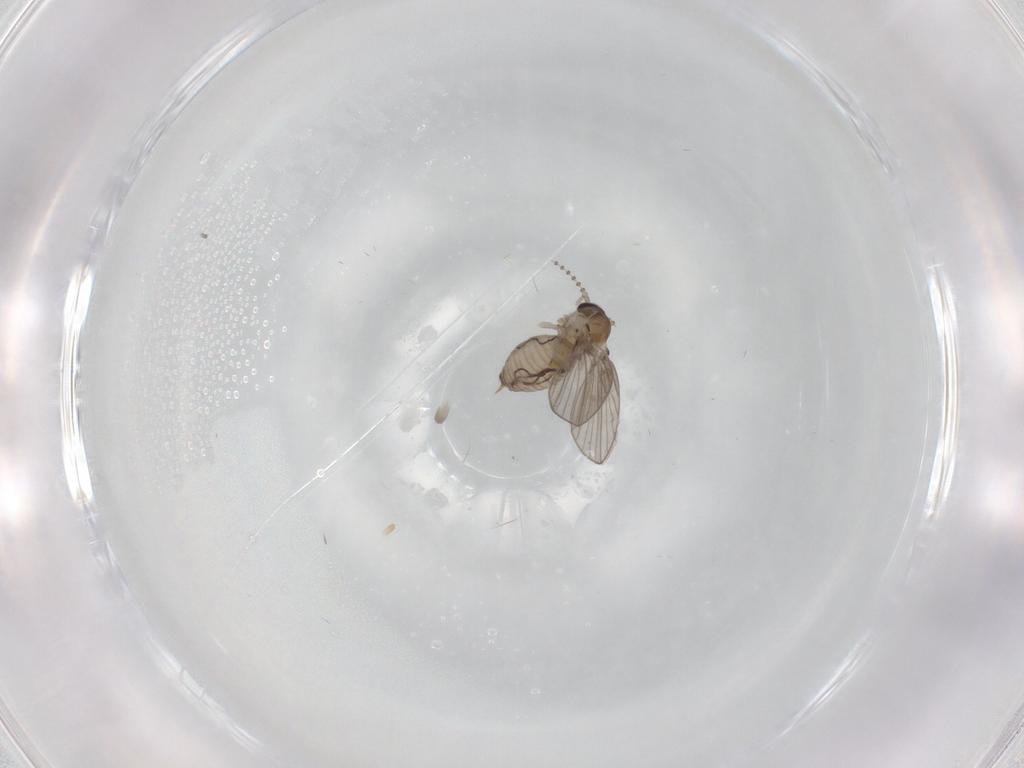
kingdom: Animalia
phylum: Arthropoda
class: Insecta
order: Diptera
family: Psychodidae
